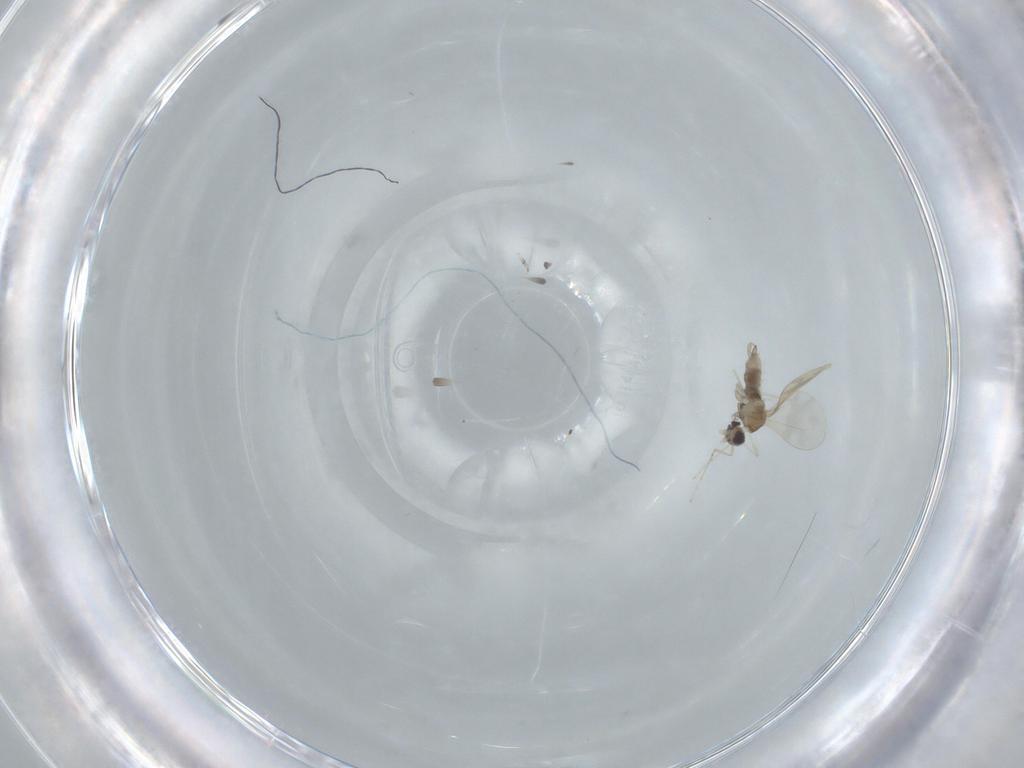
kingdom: Animalia
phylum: Arthropoda
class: Insecta
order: Diptera
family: Cecidomyiidae
